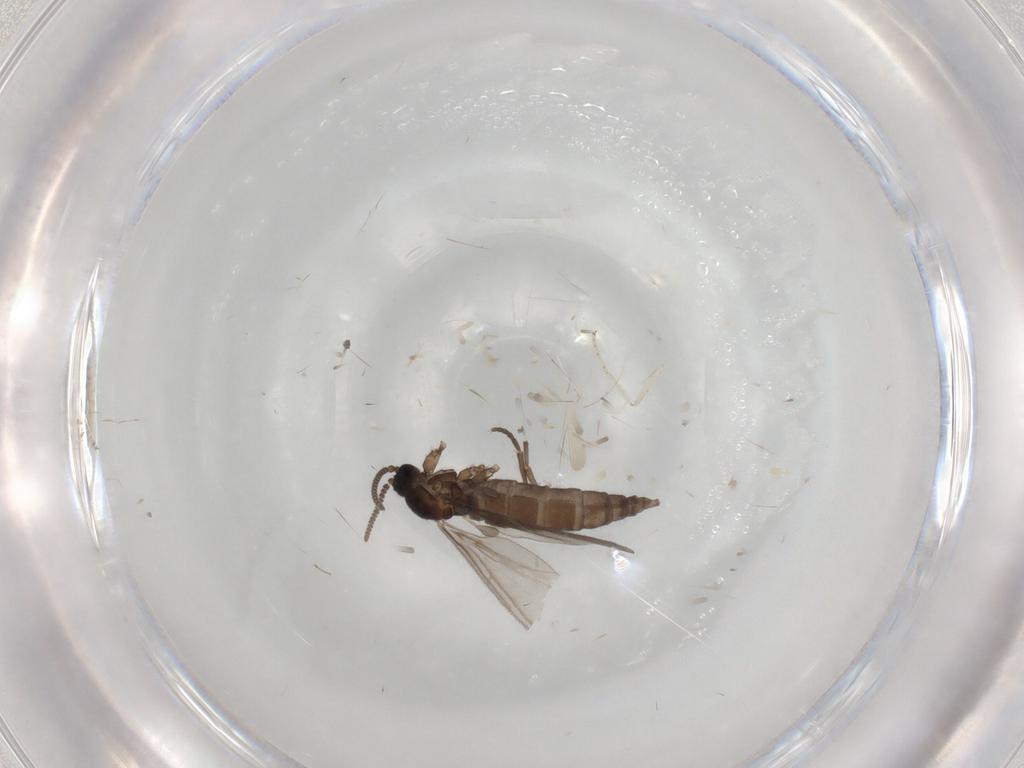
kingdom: Animalia
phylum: Arthropoda
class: Insecta
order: Diptera
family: Sciaridae
